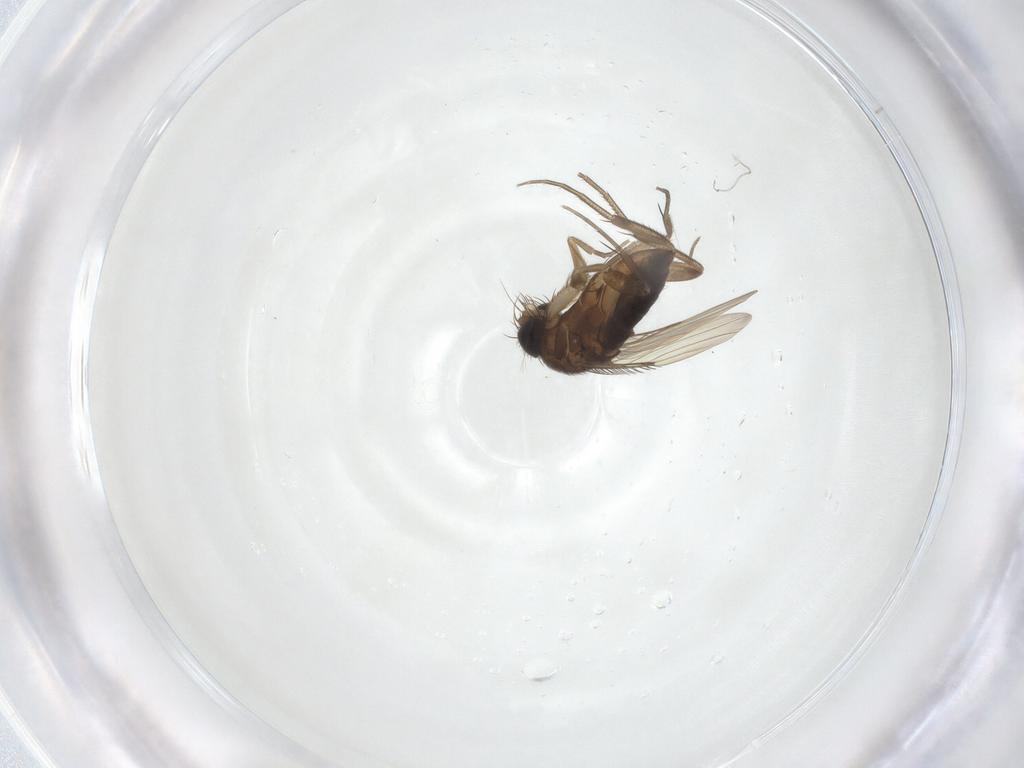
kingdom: Animalia
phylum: Arthropoda
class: Insecta
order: Diptera
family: Phoridae
